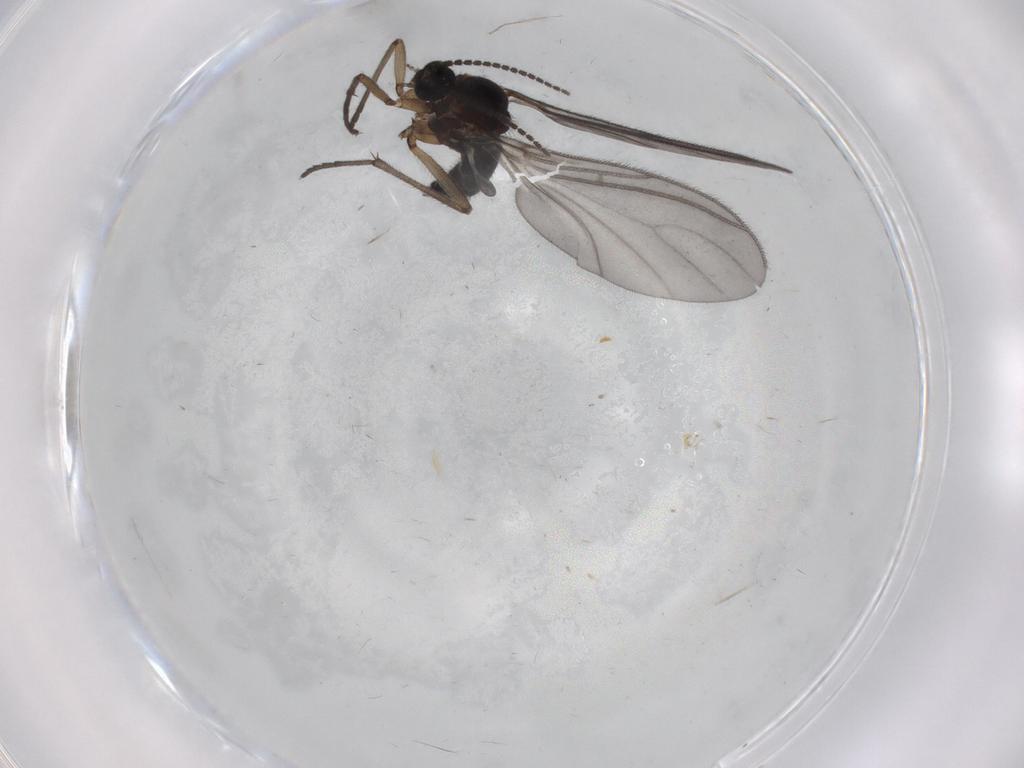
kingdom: Animalia
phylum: Arthropoda
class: Insecta
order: Diptera
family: Sciaridae
